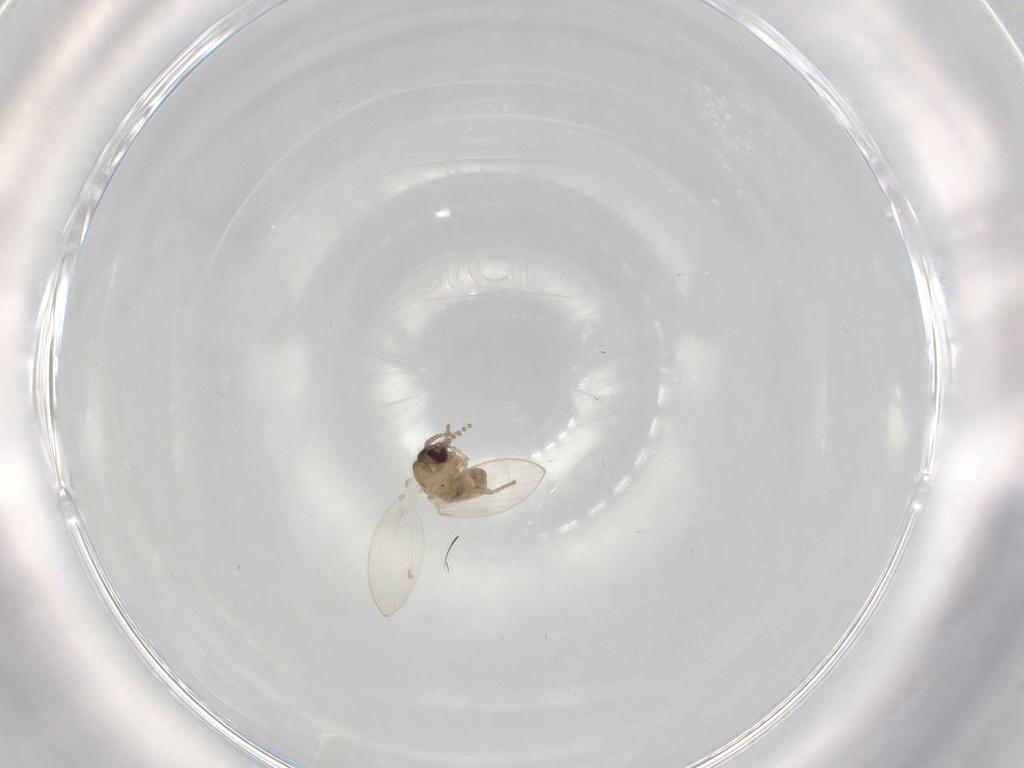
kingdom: Animalia
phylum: Arthropoda
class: Insecta
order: Diptera
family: Psychodidae
